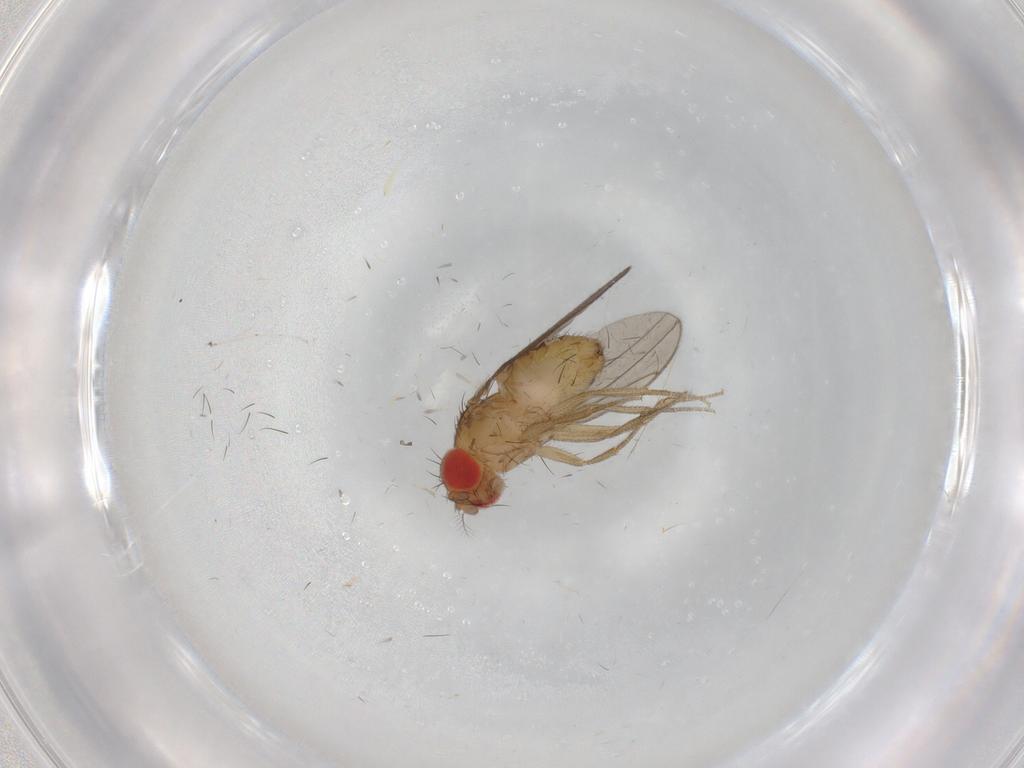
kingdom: Animalia
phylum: Arthropoda
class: Insecta
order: Diptera
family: Drosophilidae
